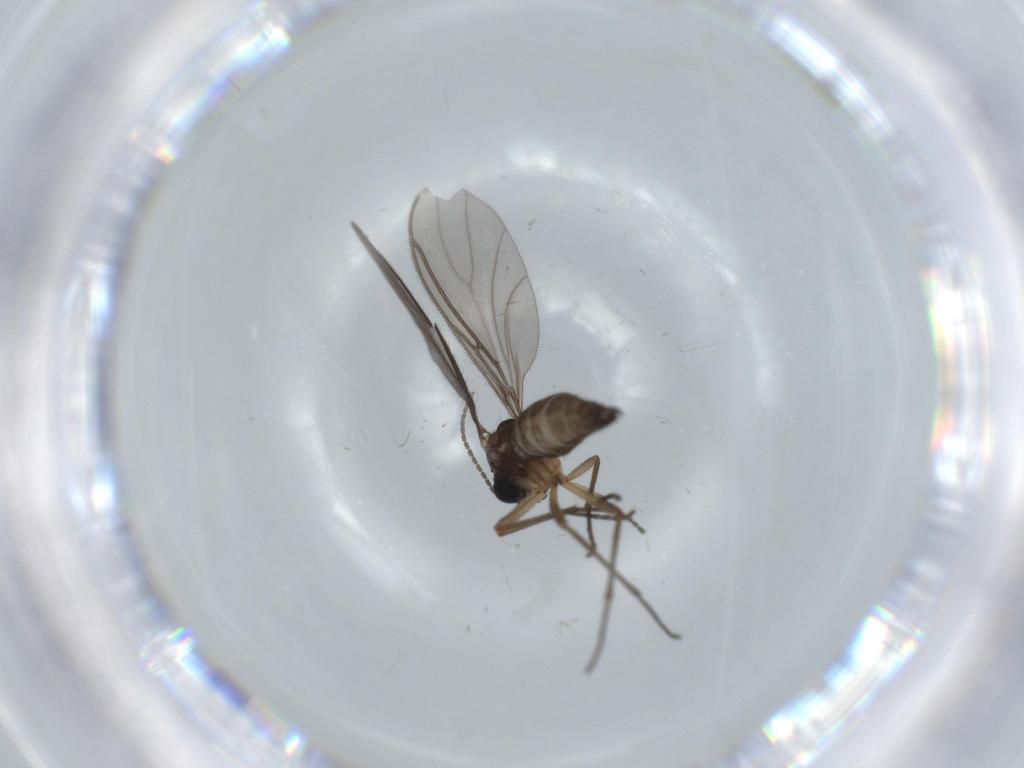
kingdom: Animalia
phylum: Arthropoda
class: Insecta
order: Diptera
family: Sciaridae
